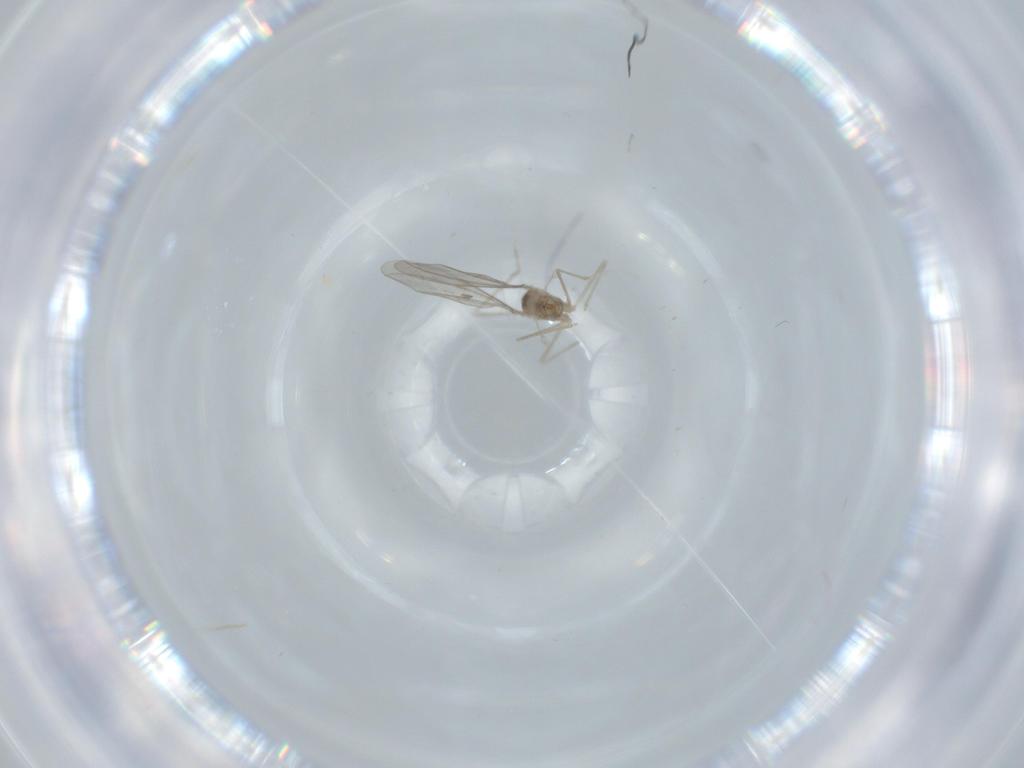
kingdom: Animalia
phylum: Arthropoda
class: Insecta
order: Diptera
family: Cecidomyiidae
